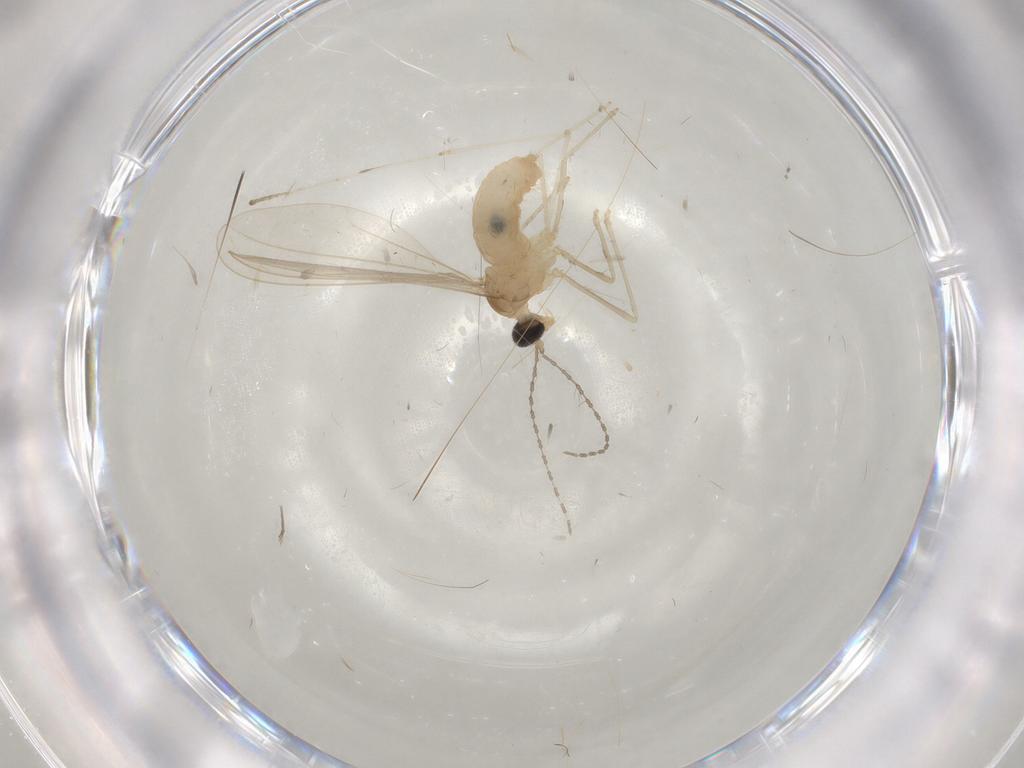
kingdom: Animalia
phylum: Arthropoda
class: Insecta
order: Diptera
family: Cecidomyiidae
